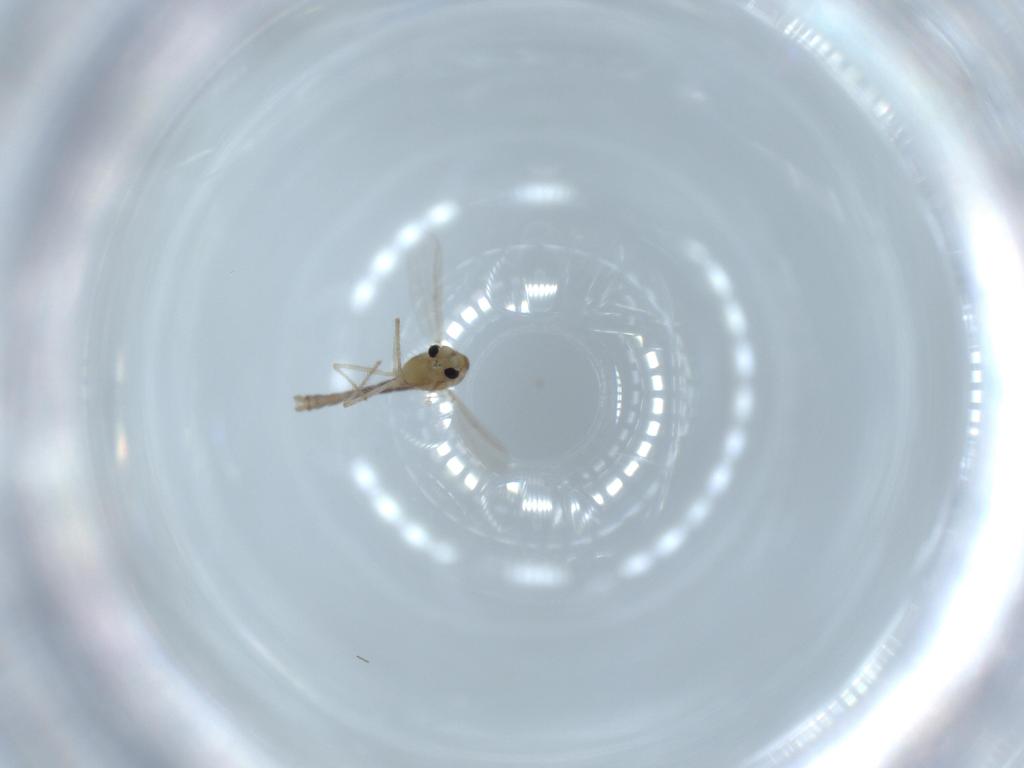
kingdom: Animalia
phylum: Arthropoda
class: Insecta
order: Diptera
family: Chironomidae
